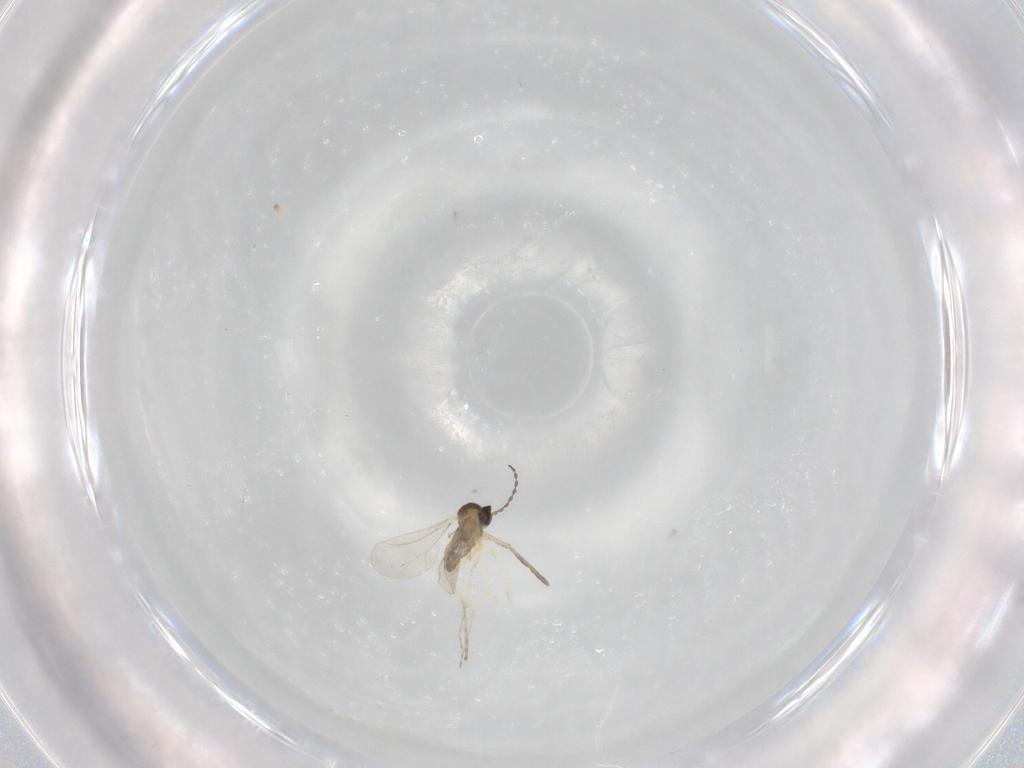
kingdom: Animalia
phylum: Arthropoda
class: Insecta
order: Diptera
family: Cecidomyiidae
